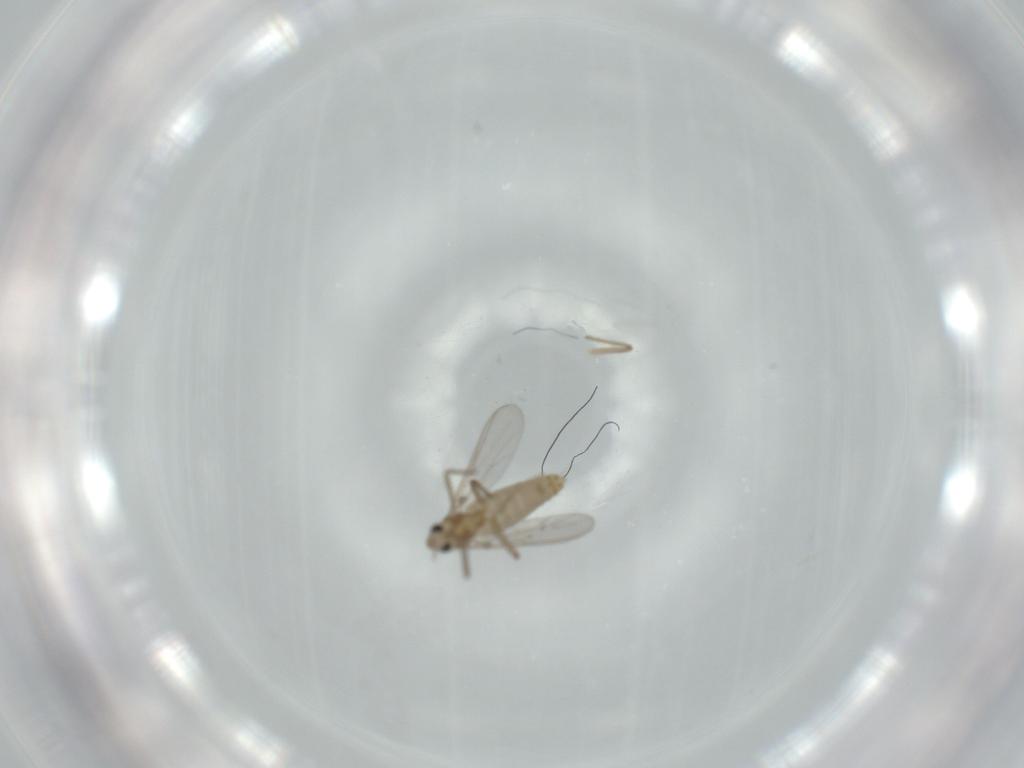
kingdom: Animalia
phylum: Arthropoda
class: Insecta
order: Diptera
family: Chironomidae
